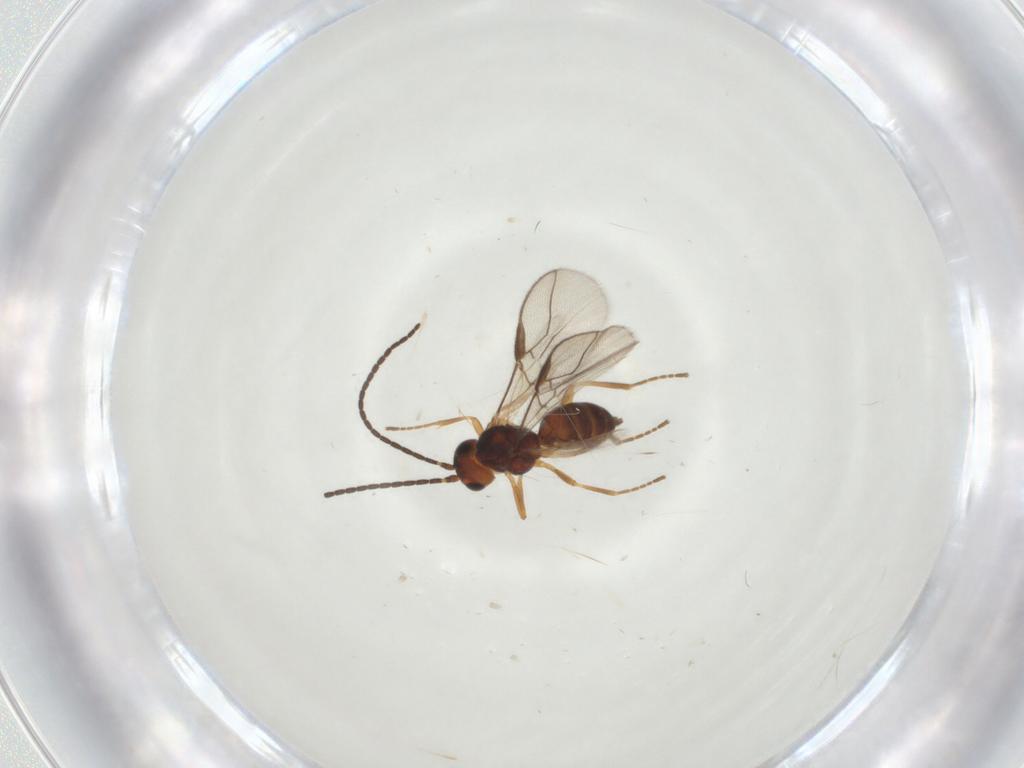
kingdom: Animalia
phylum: Arthropoda
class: Insecta
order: Hymenoptera
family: Braconidae
